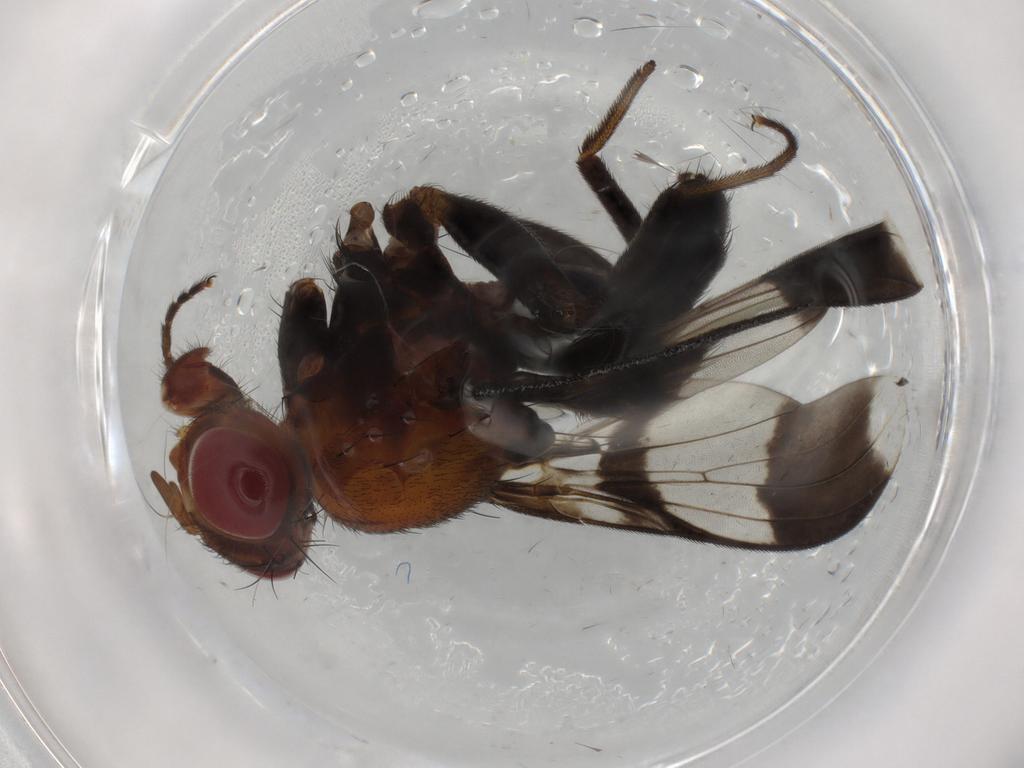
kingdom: Animalia
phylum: Arthropoda
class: Insecta
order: Diptera
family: Richardiidae
